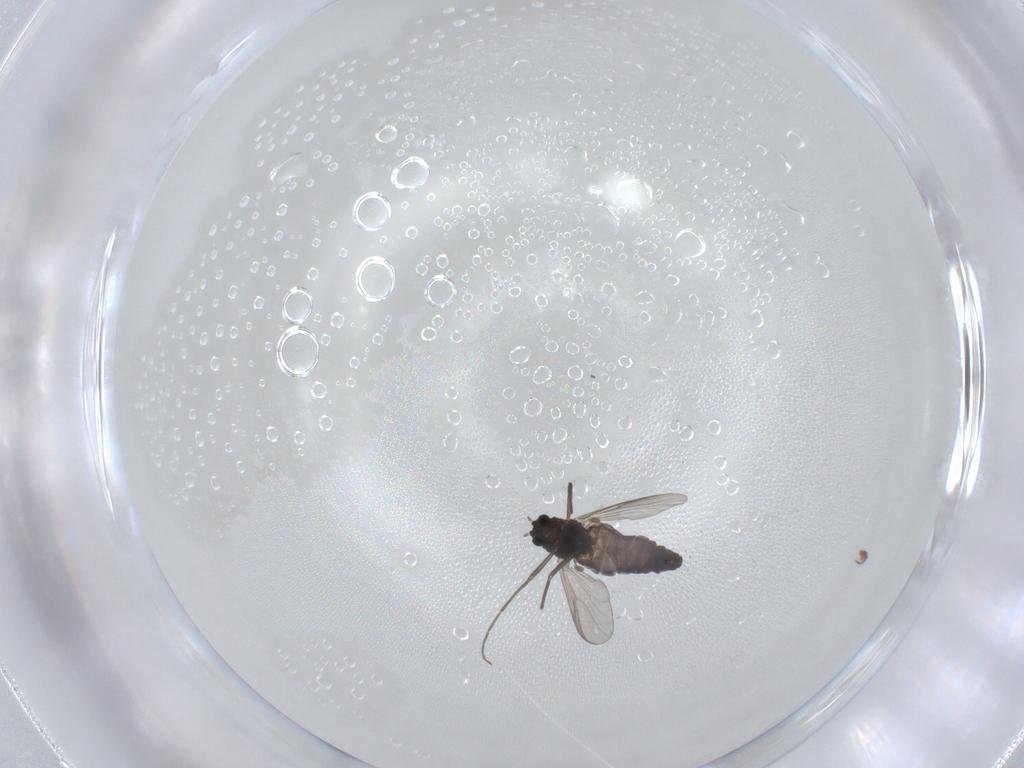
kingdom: Animalia
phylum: Arthropoda
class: Insecta
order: Diptera
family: Chironomidae
